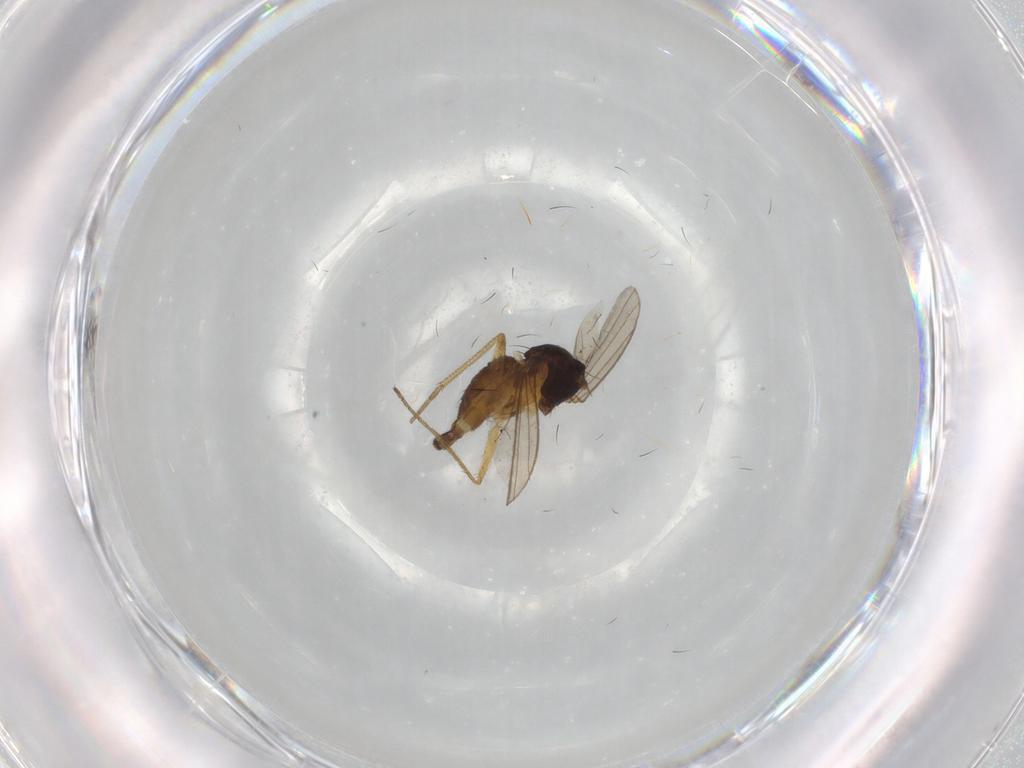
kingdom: Animalia
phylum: Arthropoda
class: Insecta
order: Diptera
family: Dolichopodidae
